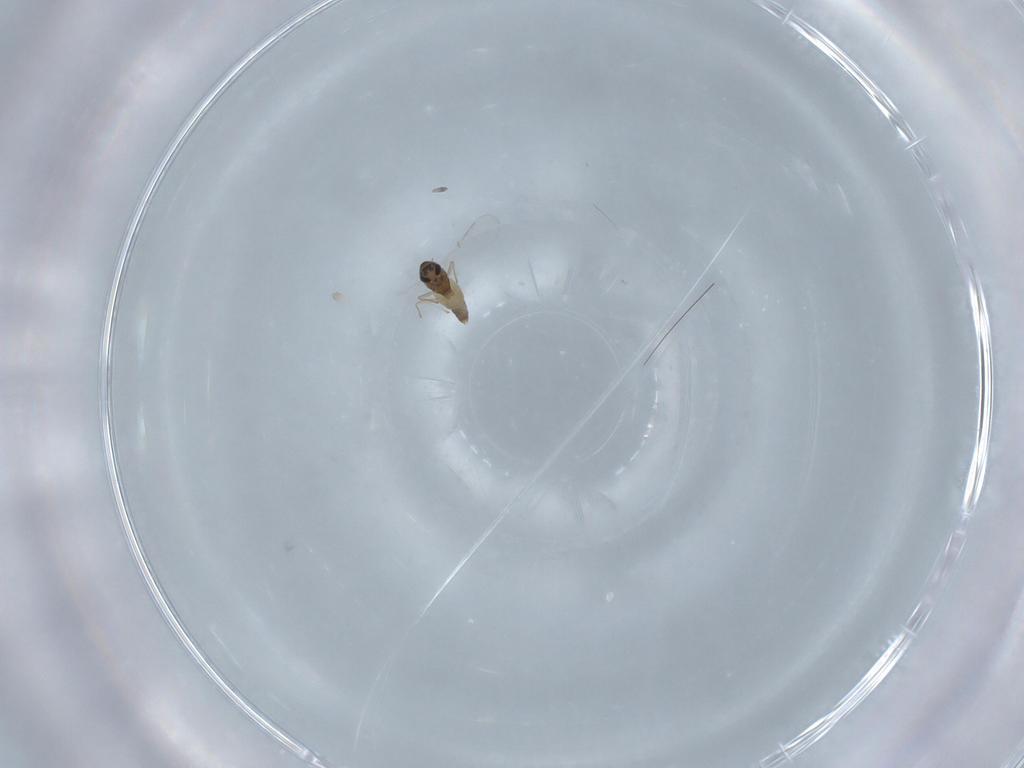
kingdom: Animalia
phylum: Arthropoda
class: Insecta
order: Diptera
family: Chironomidae
